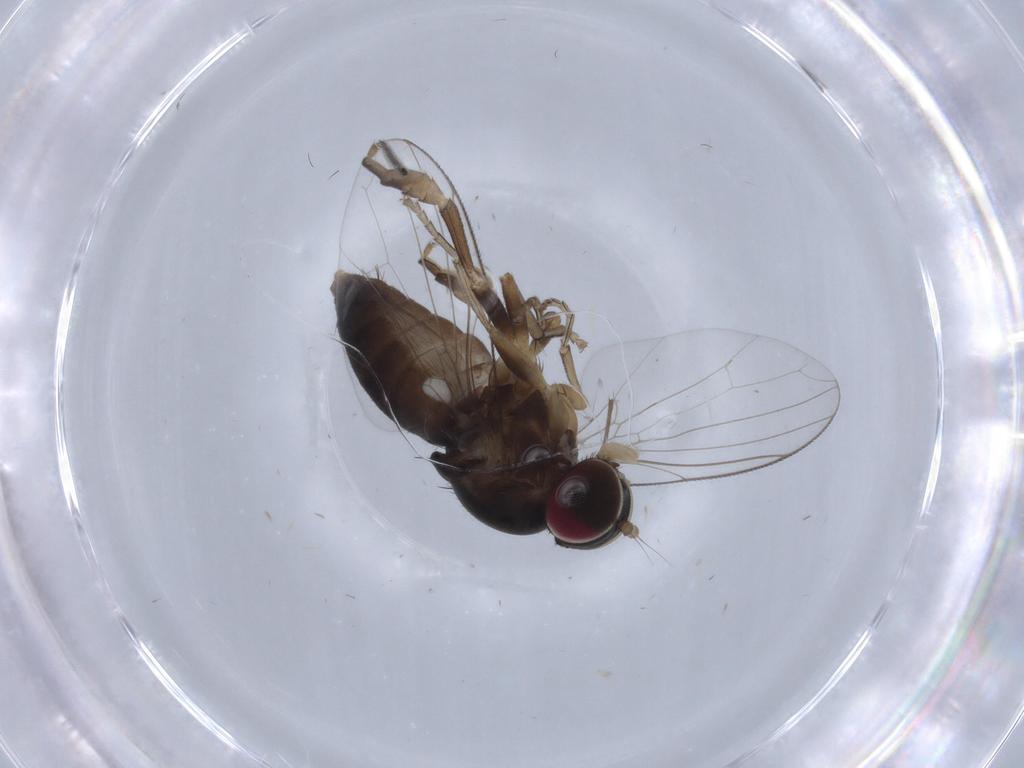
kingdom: Animalia
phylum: Arthropoda
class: Insecta
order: Diptera
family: Platypezidae
